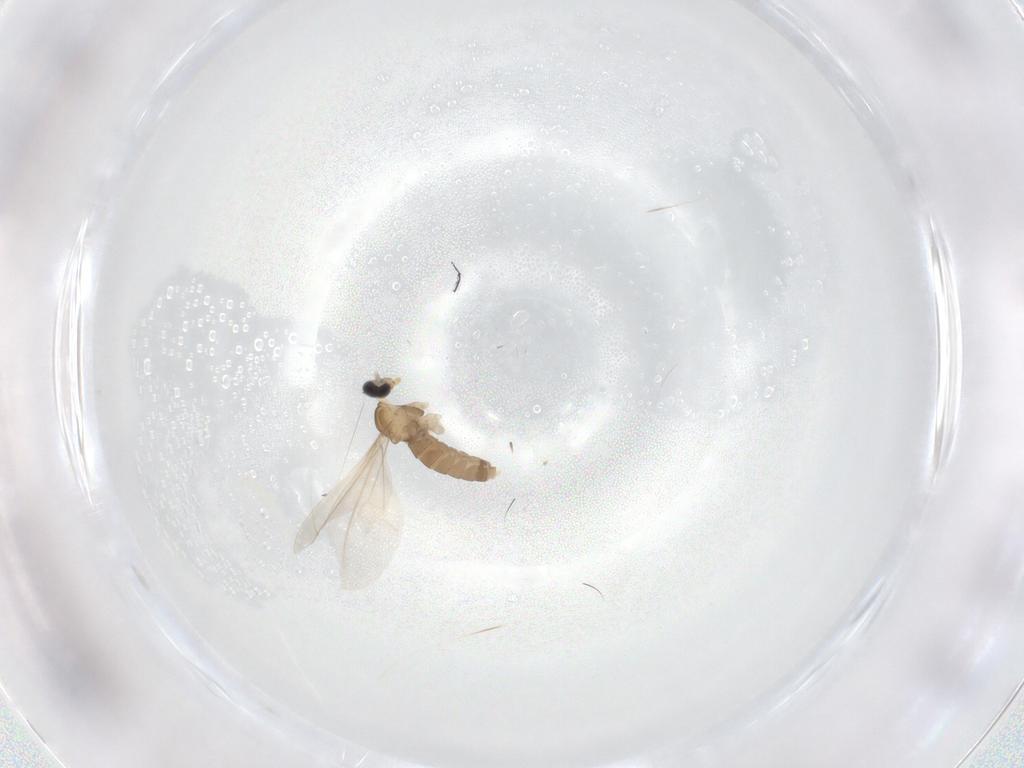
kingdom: Animalia
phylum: Arthropoda
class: Insecta
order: Diptera
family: Cecidomyiidae
